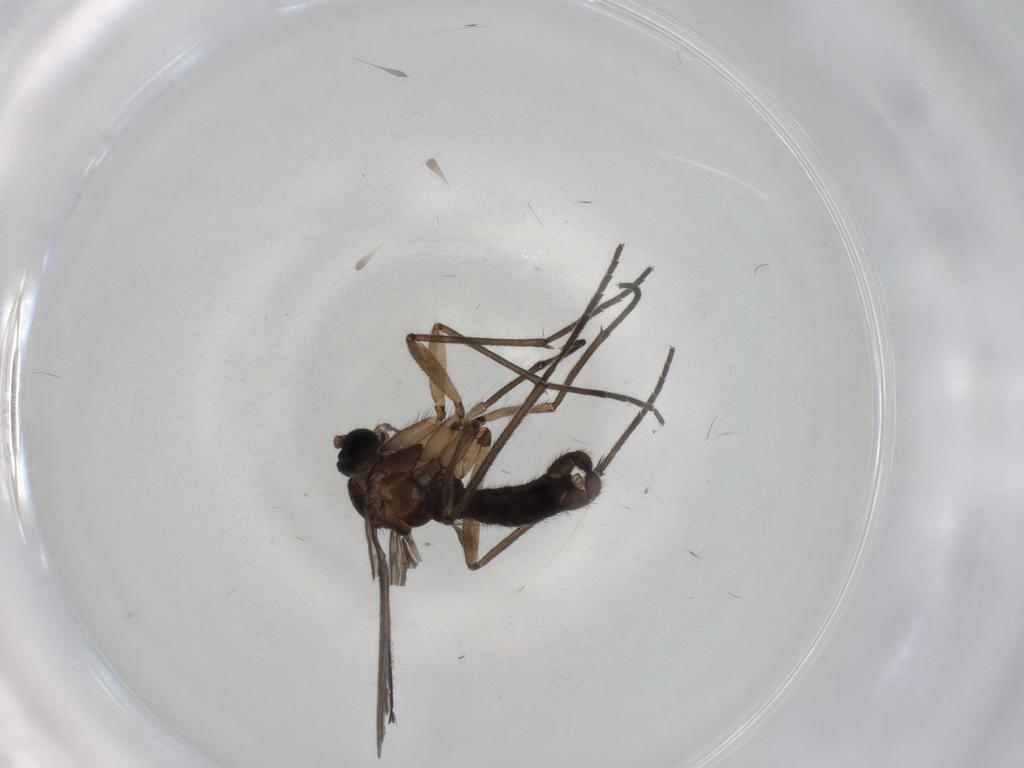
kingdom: Animalia
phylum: Arthropoda
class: Insecta
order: Diptera
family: Sciaridae
